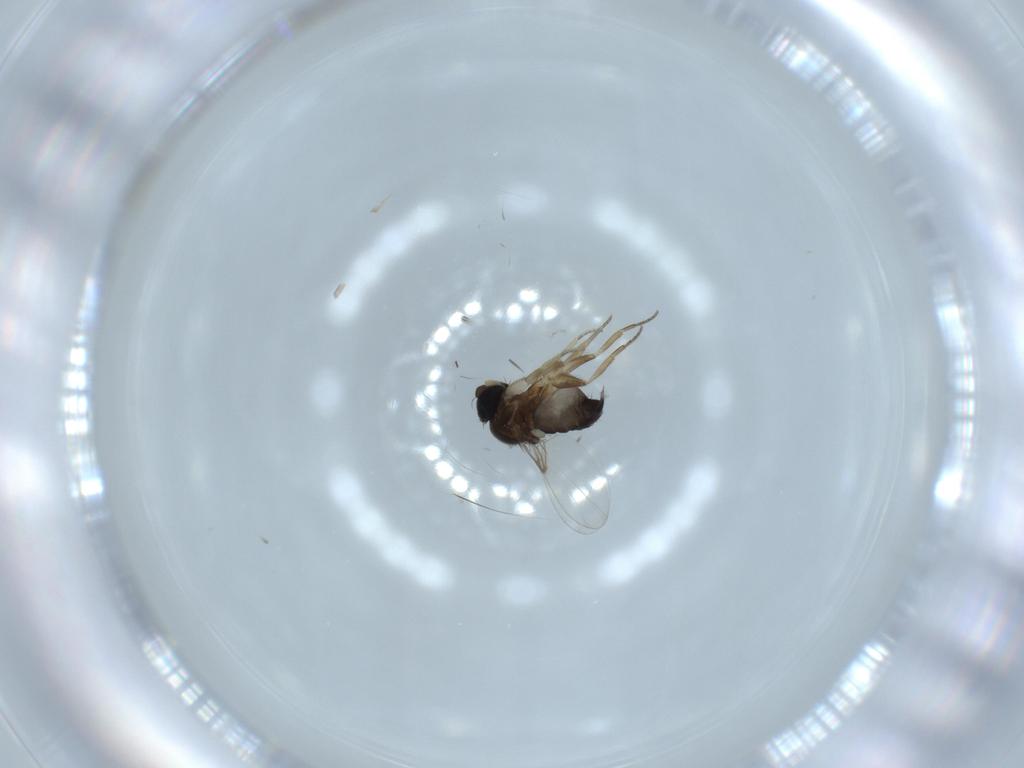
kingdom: Animalia
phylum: Arthropoda
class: Insecta
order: Diptera
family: Phoridae
